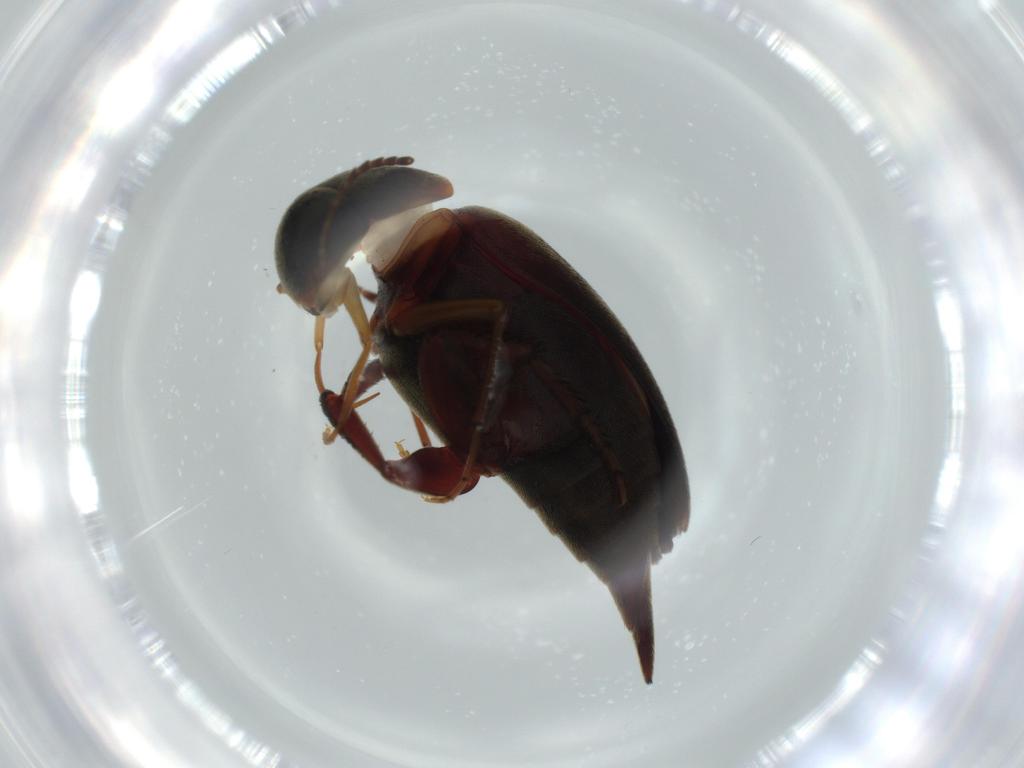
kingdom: Animalia
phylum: Arthropoda
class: Insecta
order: Coleoptera
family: Mordellidae
